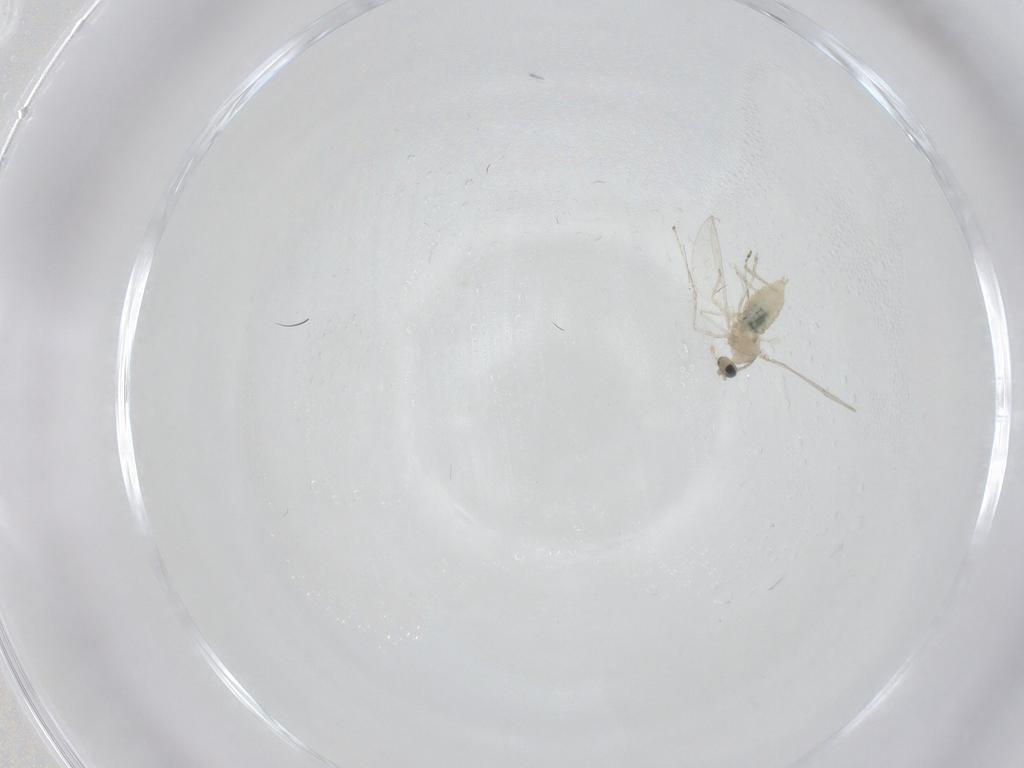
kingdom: Animalia
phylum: Arthropoda
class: Insecta
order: Diptera
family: Cecidomyiidae
